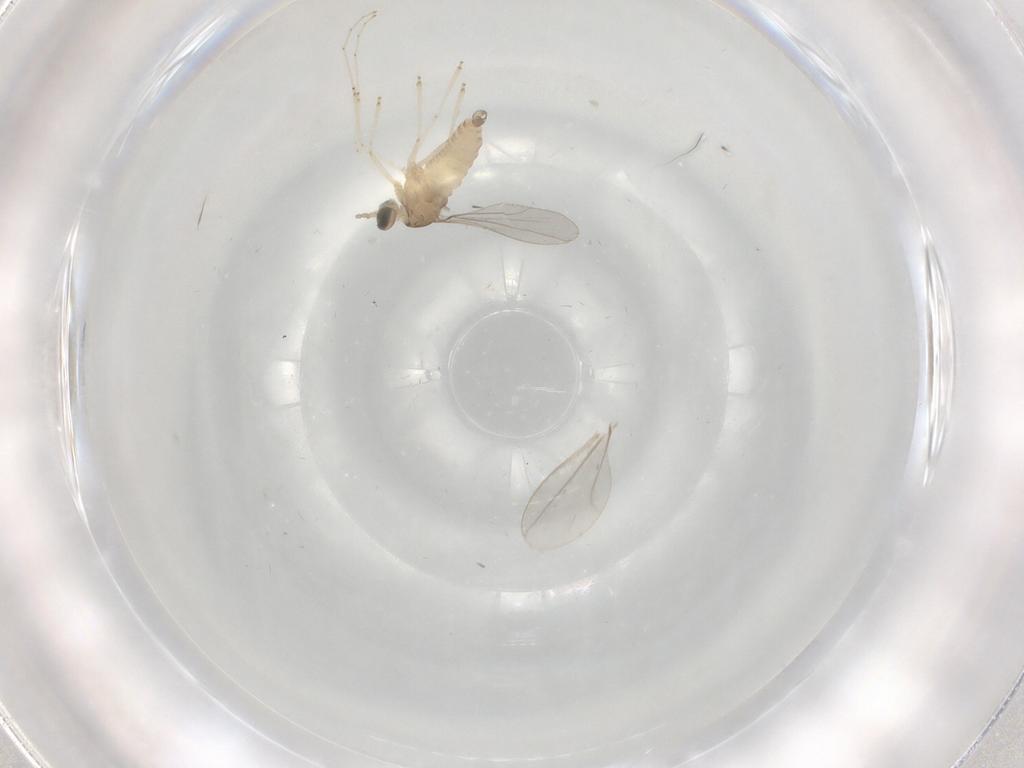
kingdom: Animalia
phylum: Arthropoda
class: Insecta
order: Diptera
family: Cecidomyiidae
